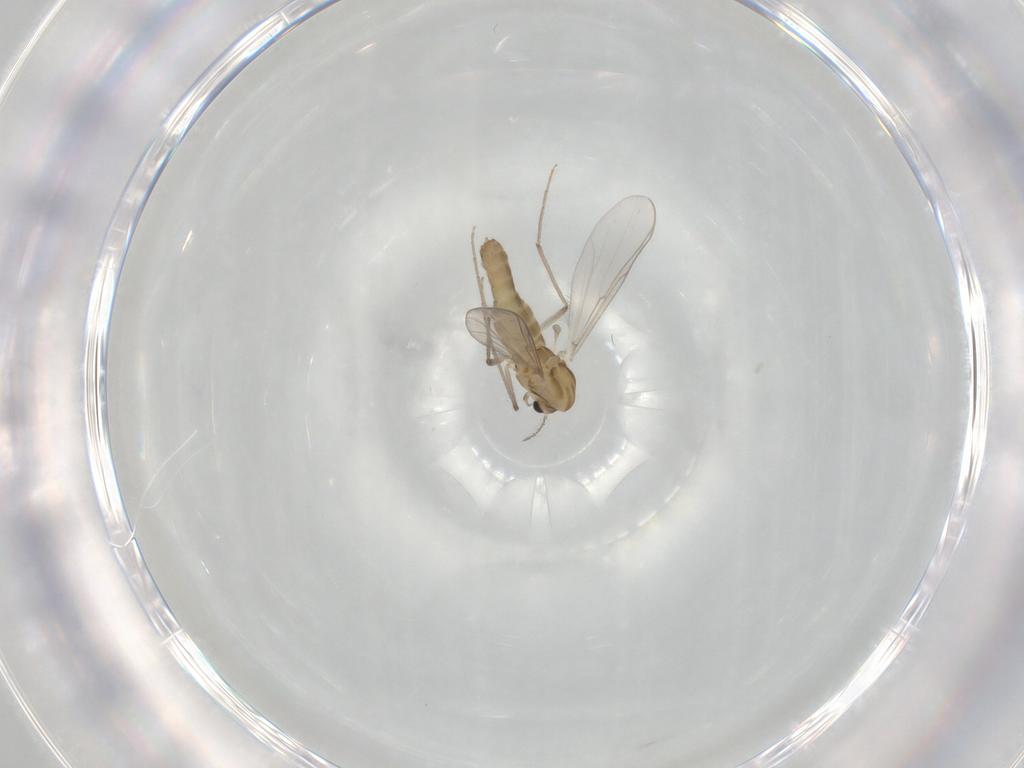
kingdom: Animalia
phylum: Arthropoda
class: Insecta
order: Diptera
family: Chironomidae
